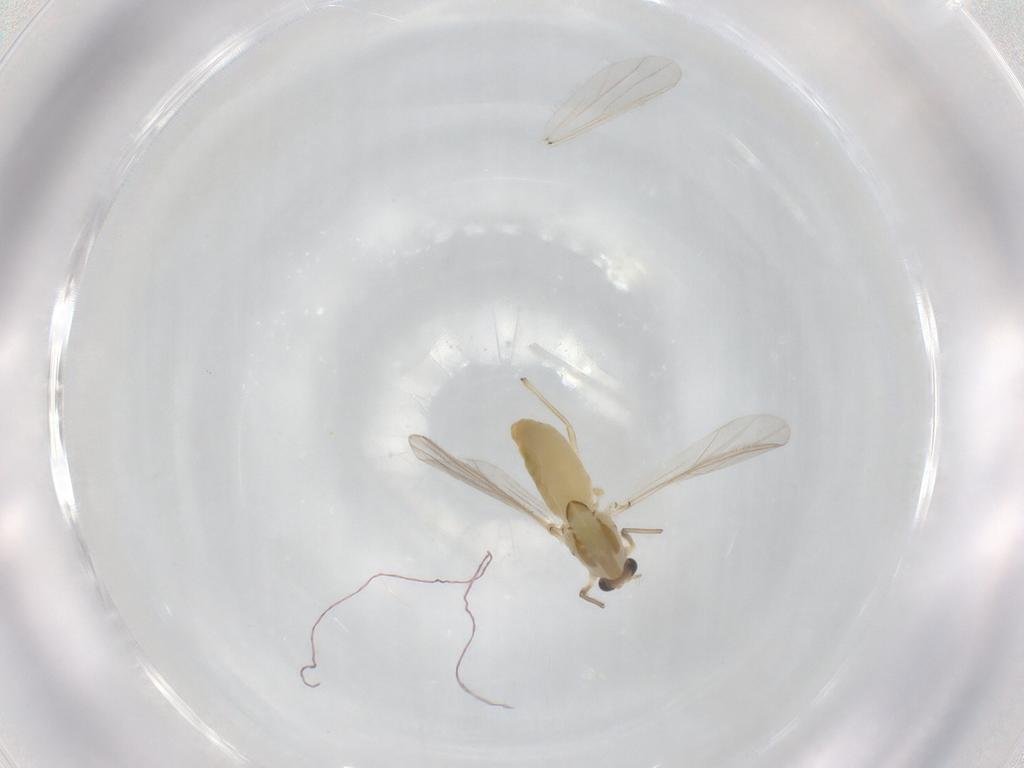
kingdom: Animalia
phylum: Arthropoda
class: Insecta
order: Diptera
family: Chironomidae
